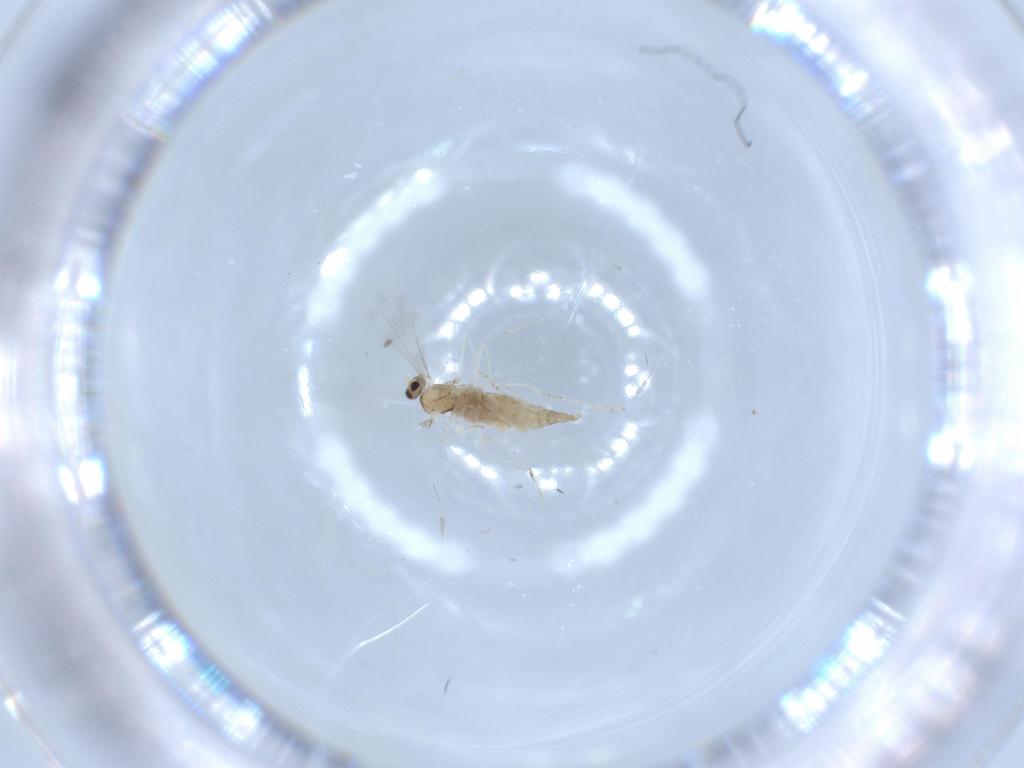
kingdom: Animalia
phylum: Arthropoda
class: Insecta
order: Diptera
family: Cecidomyiidae
